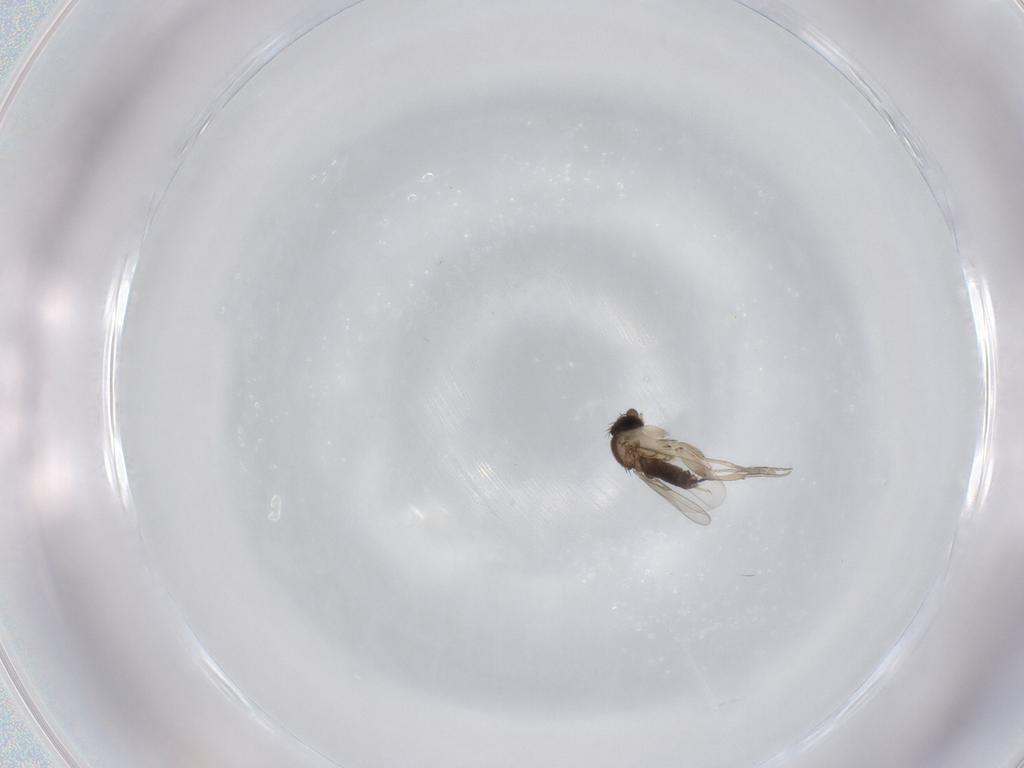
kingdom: Animalia
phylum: Arthropoda
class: Insecta
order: Diptera
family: Phoridae
